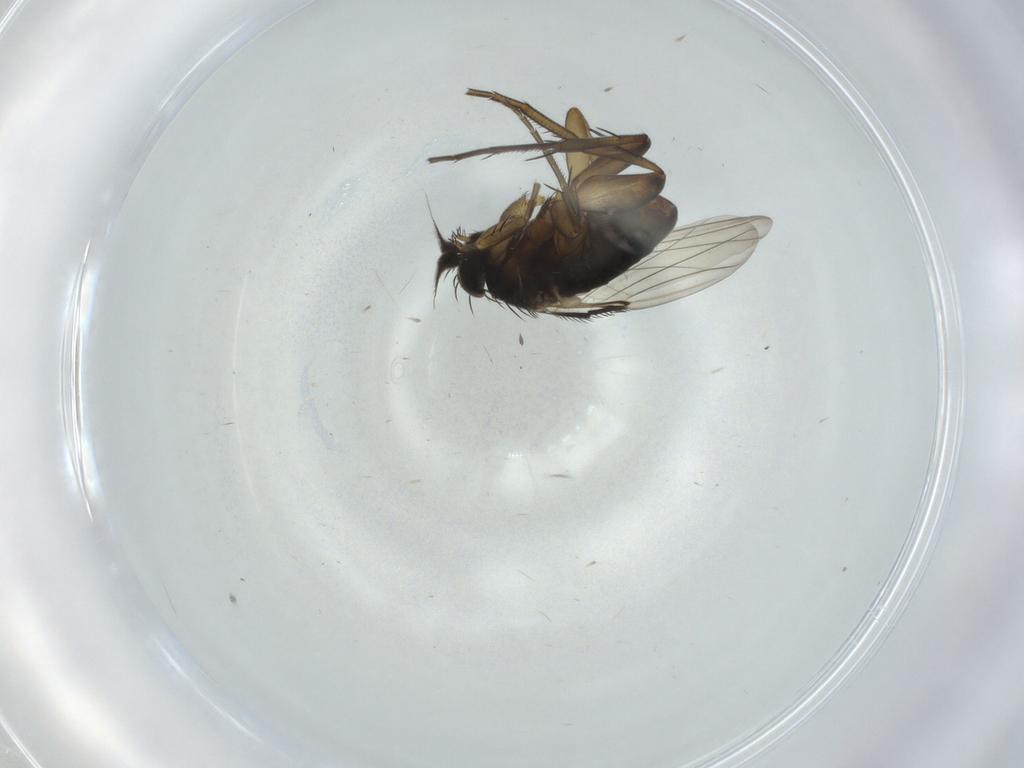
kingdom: Animalia
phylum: Arthropoda
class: Insecta
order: Diptera
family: Phoridae
